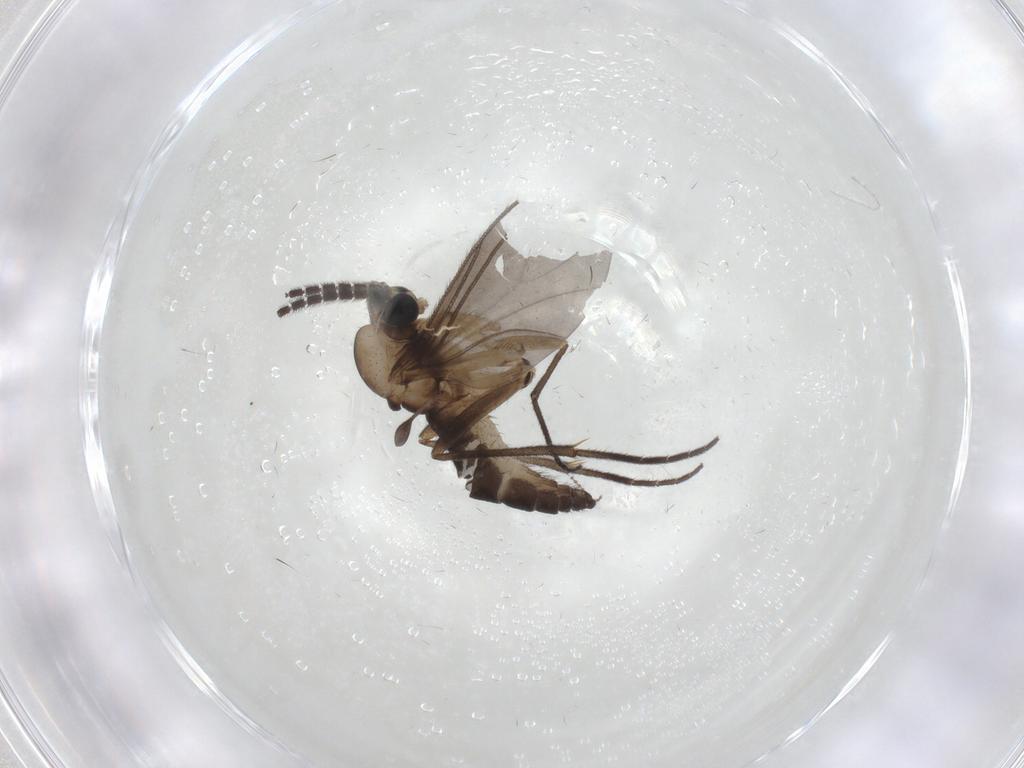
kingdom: Animalia
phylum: Arthropoda
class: Insecta
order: Diptera
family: Sciaridae
